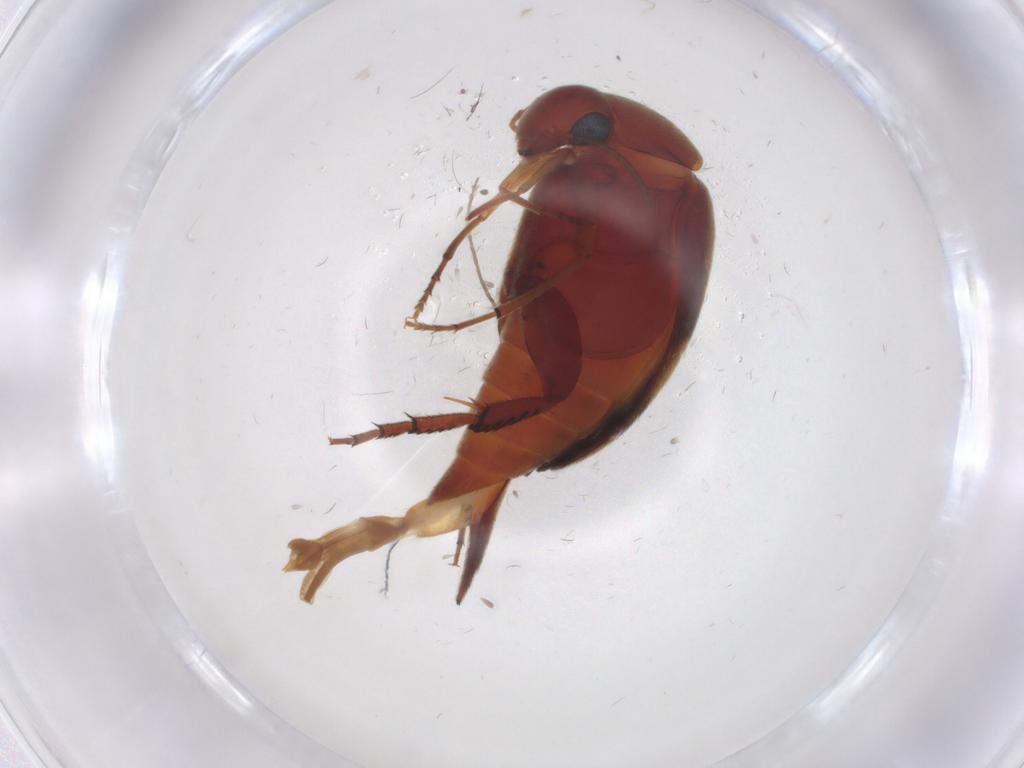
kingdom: Animalia
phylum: Arthropoda
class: Insecta
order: Coleoptera
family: Mordellidae
